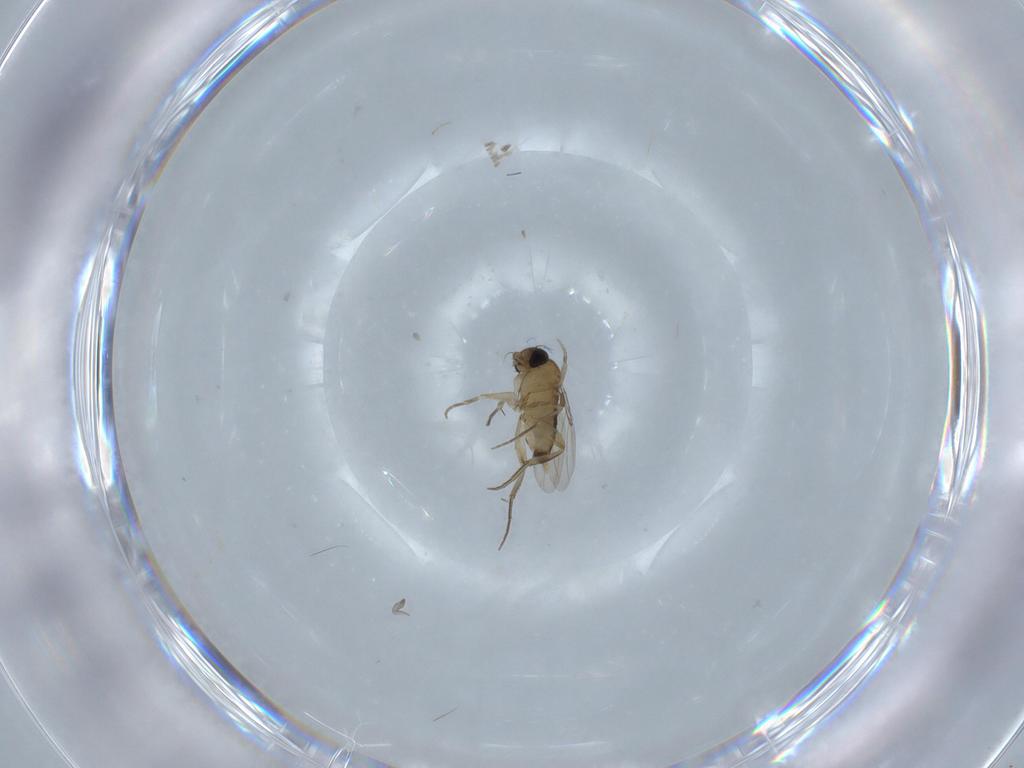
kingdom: Animalia
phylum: Arthropoda
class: Insecta
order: Diptera
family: Phoridae
